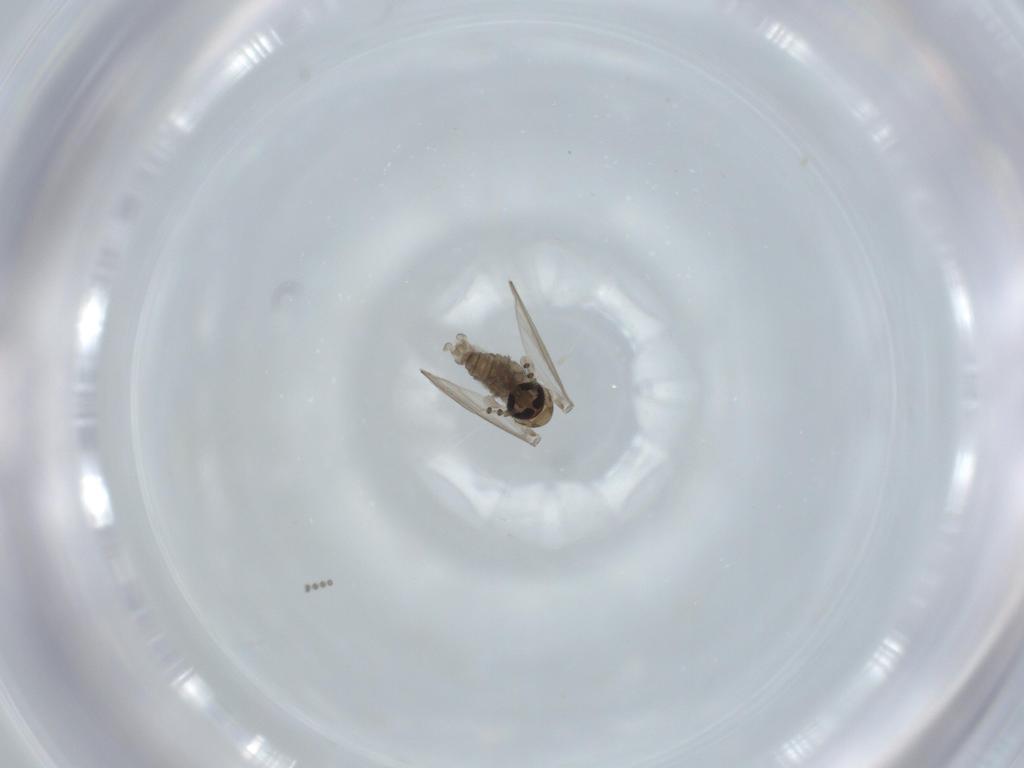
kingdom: Animalia
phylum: Arthropoda
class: Insecta
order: Diptera
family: Psychodidae
